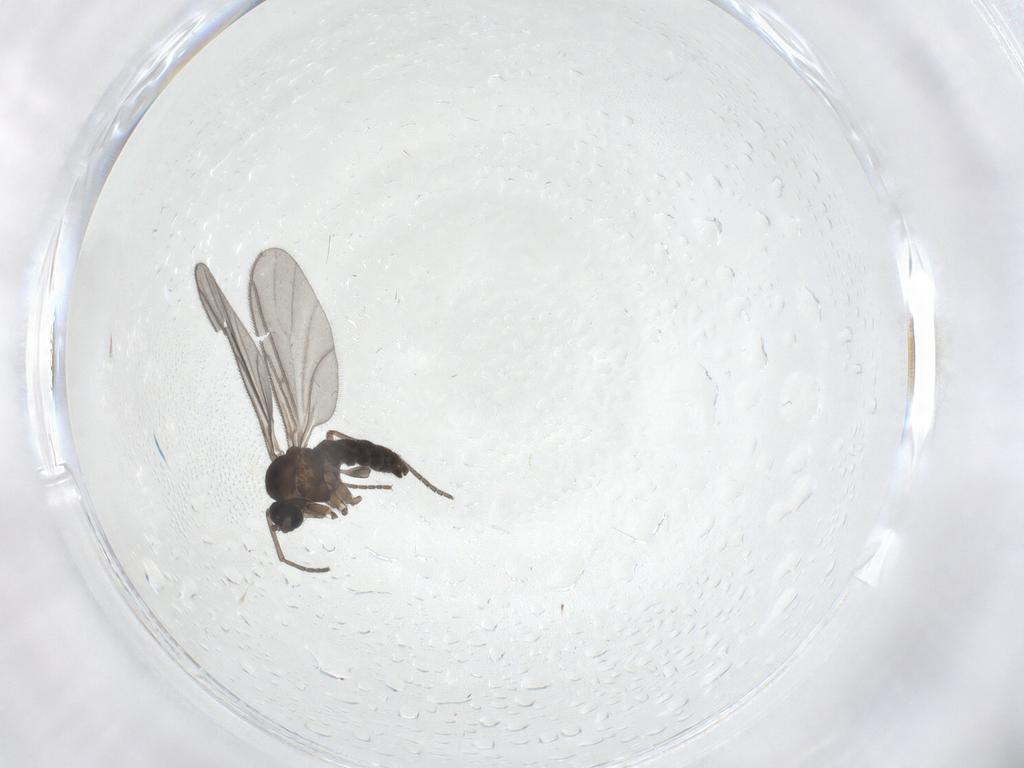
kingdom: Animalia
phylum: Arthropoda
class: Insecta
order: Diptera
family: Sciaridae
